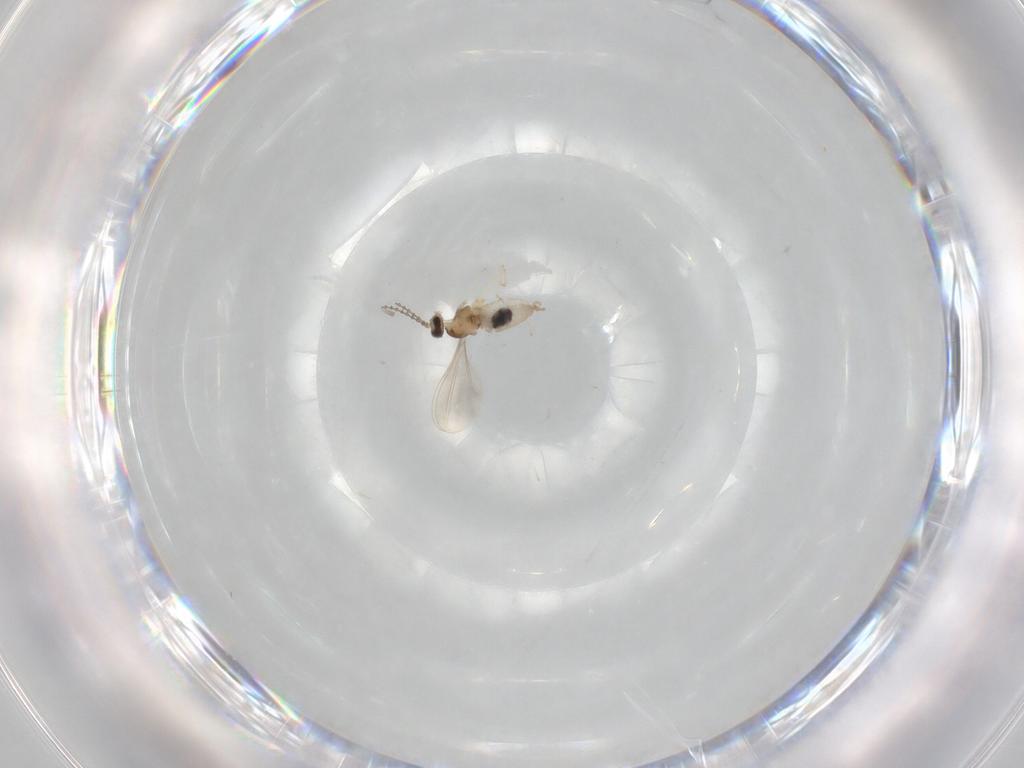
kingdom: Animalia
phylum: Arthropoda
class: Insecta
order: Diptera
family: Cecidomyiidae
